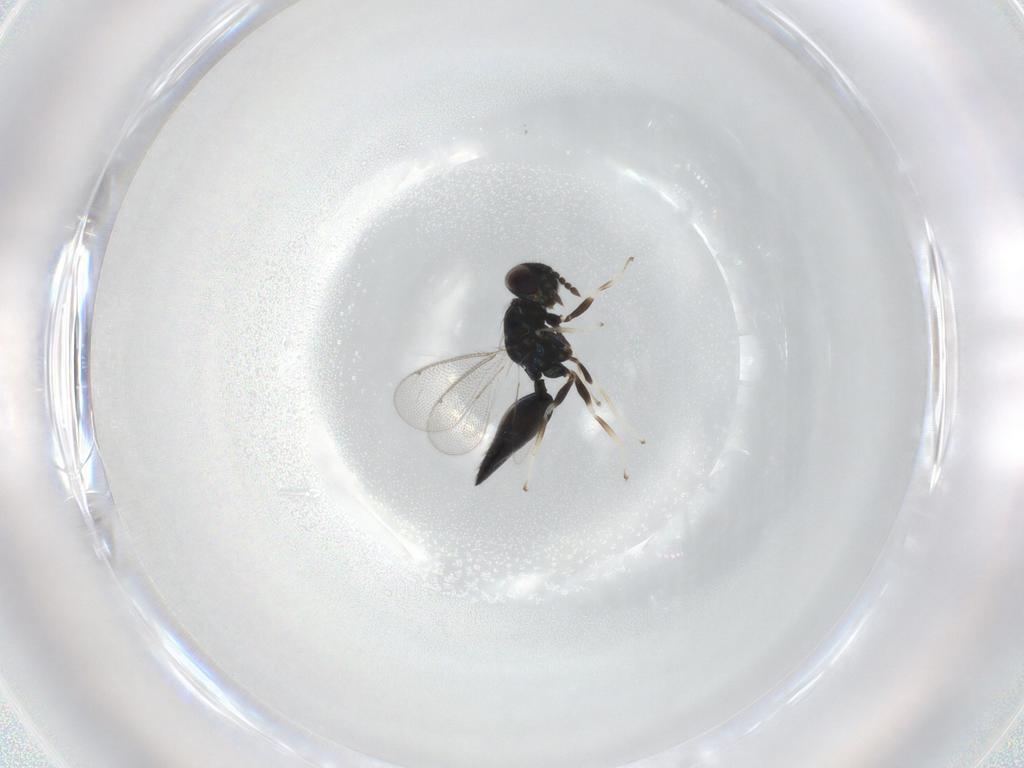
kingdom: Animalia
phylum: Arthropoda
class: Insecta
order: Hymenoptera
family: Eulophidae
